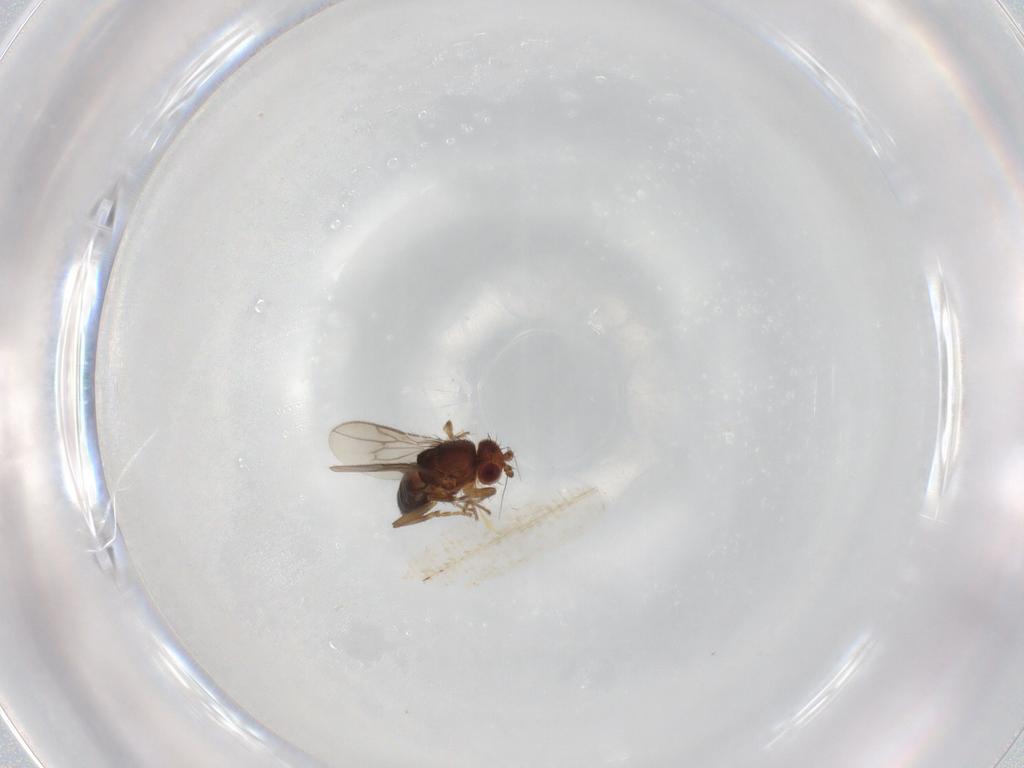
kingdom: Animalia
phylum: Arthropoda
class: Insecta
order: Diptera
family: Sphaeroceridae
